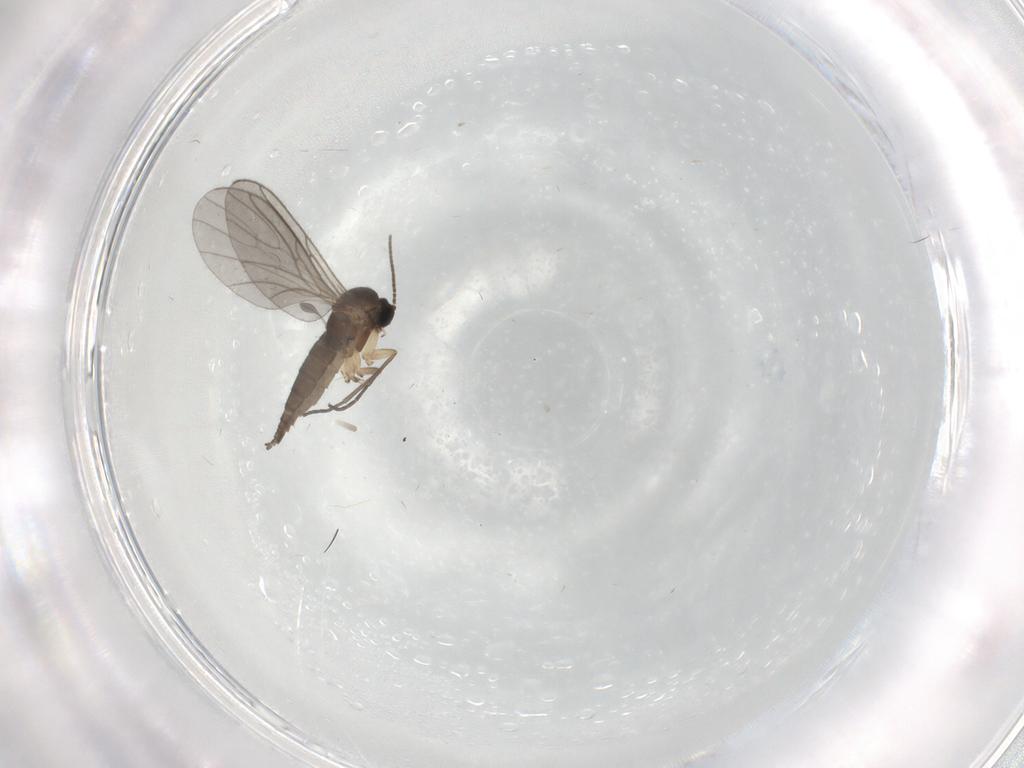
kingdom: Animalia
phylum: Arthropoda
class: Insecta
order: Diptera
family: Sciaridae
